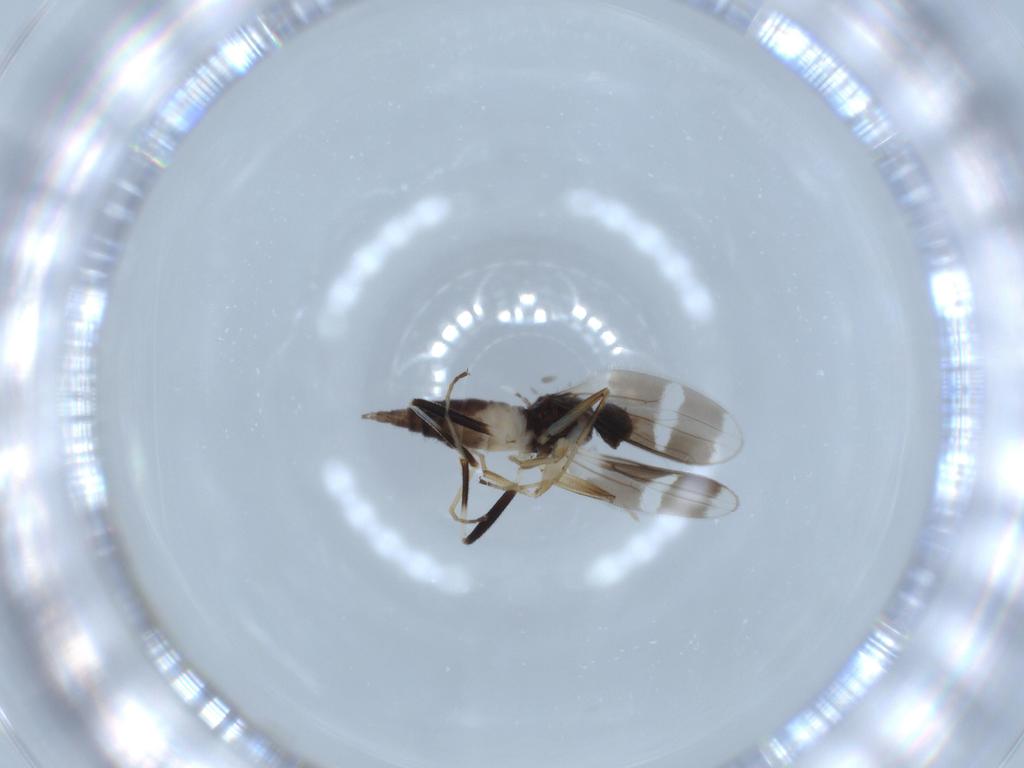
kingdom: Animalia
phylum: Arthropoda
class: Insecta
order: Diptera
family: Hybotidae
